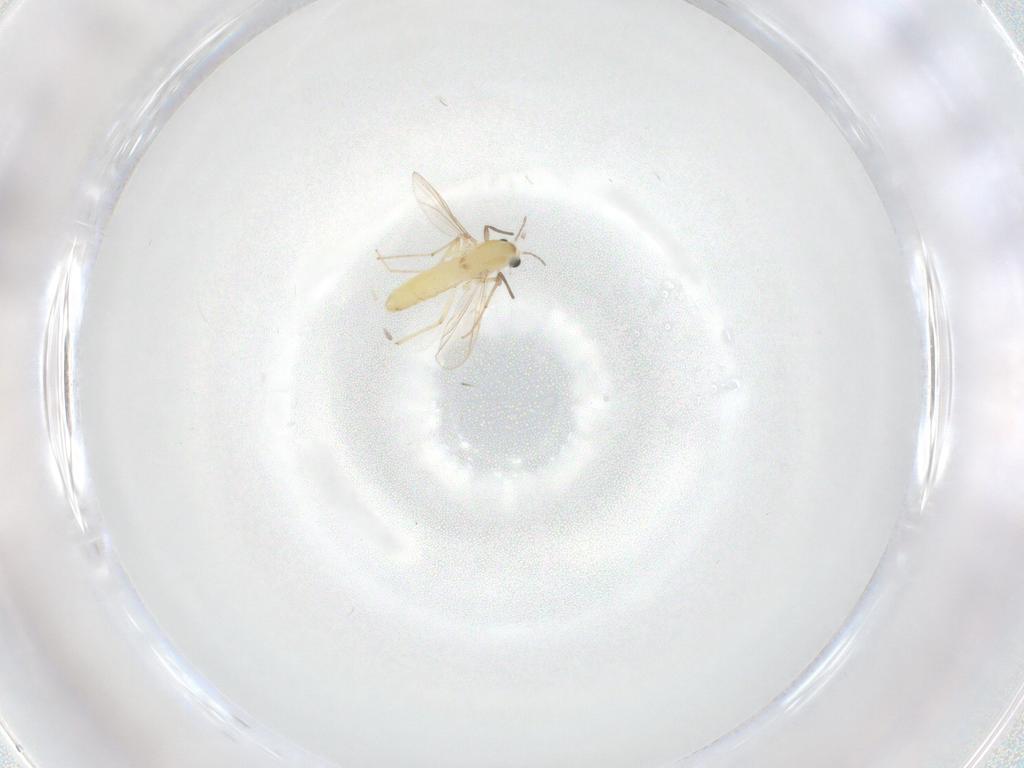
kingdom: Animalia
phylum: Arthropoda
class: Insecta
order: Diptera
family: Chironomidae
